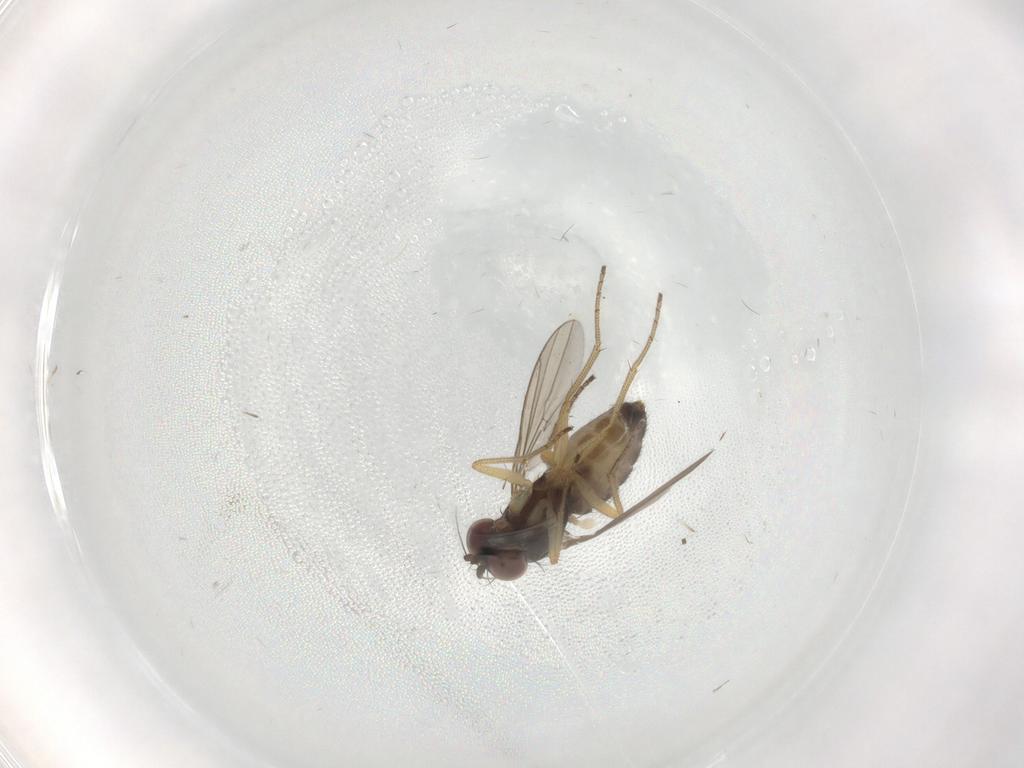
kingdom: Animalia
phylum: Arthropoda
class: Insecta
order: Diptera
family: Dolichopodidae
